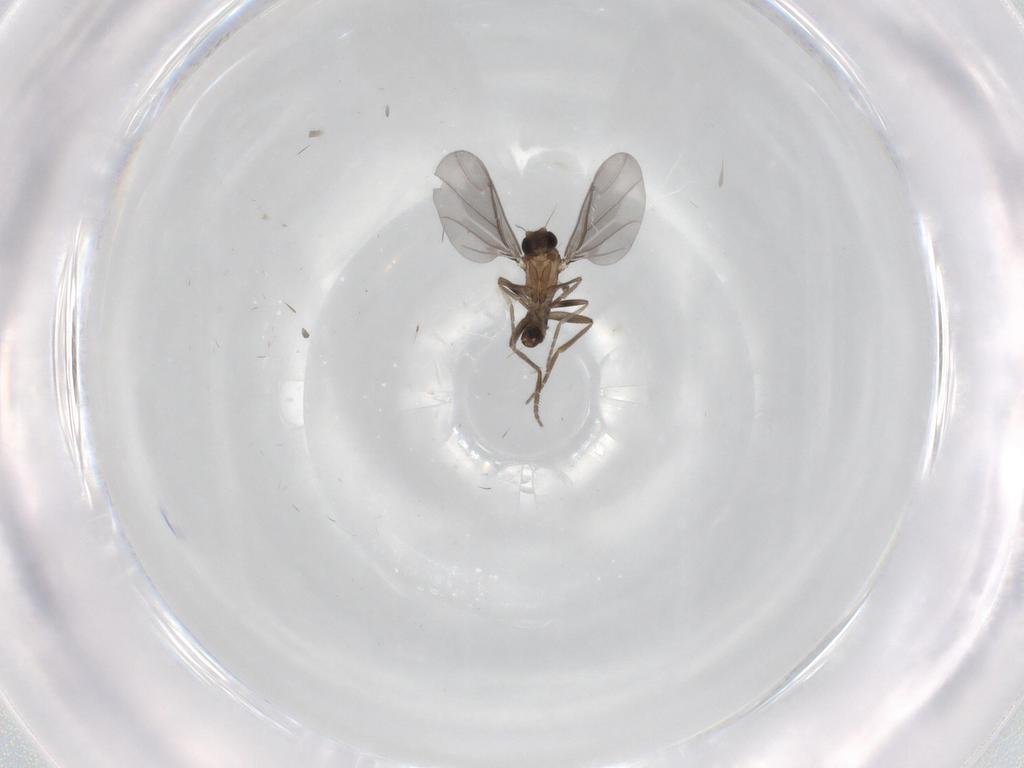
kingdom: Animalia
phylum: Arthropoda
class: Insecta
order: Diptera
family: Phoridae
